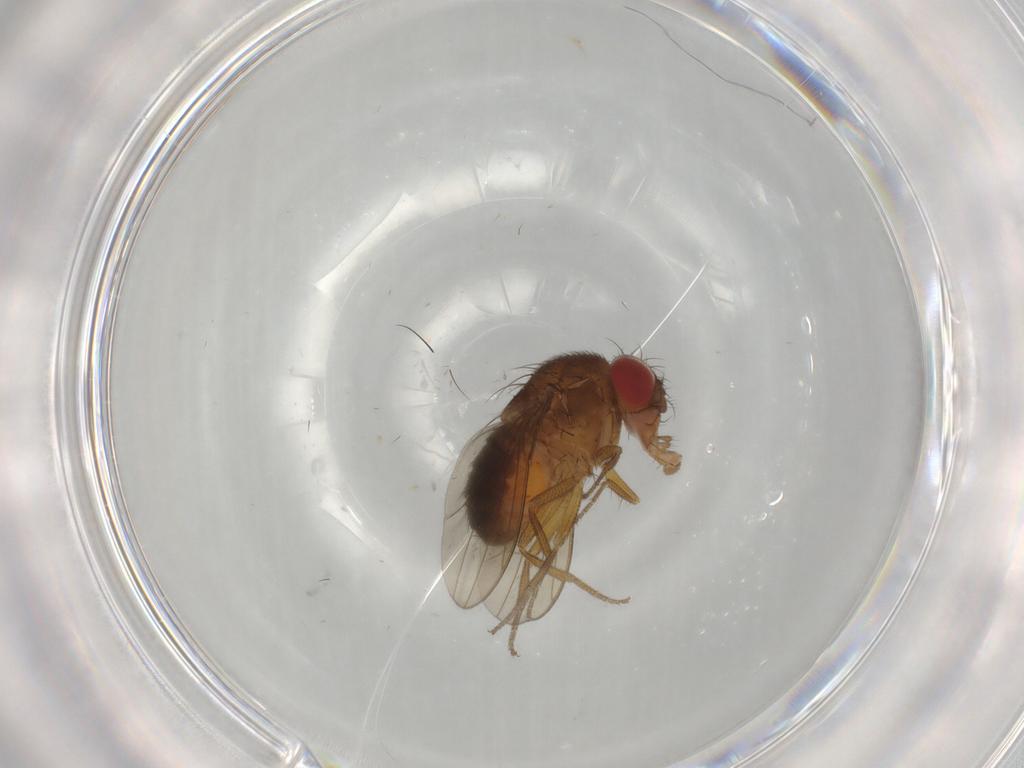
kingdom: Animalia
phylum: Arthropoda
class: Insecta
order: Diptera
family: Drosophilidae
